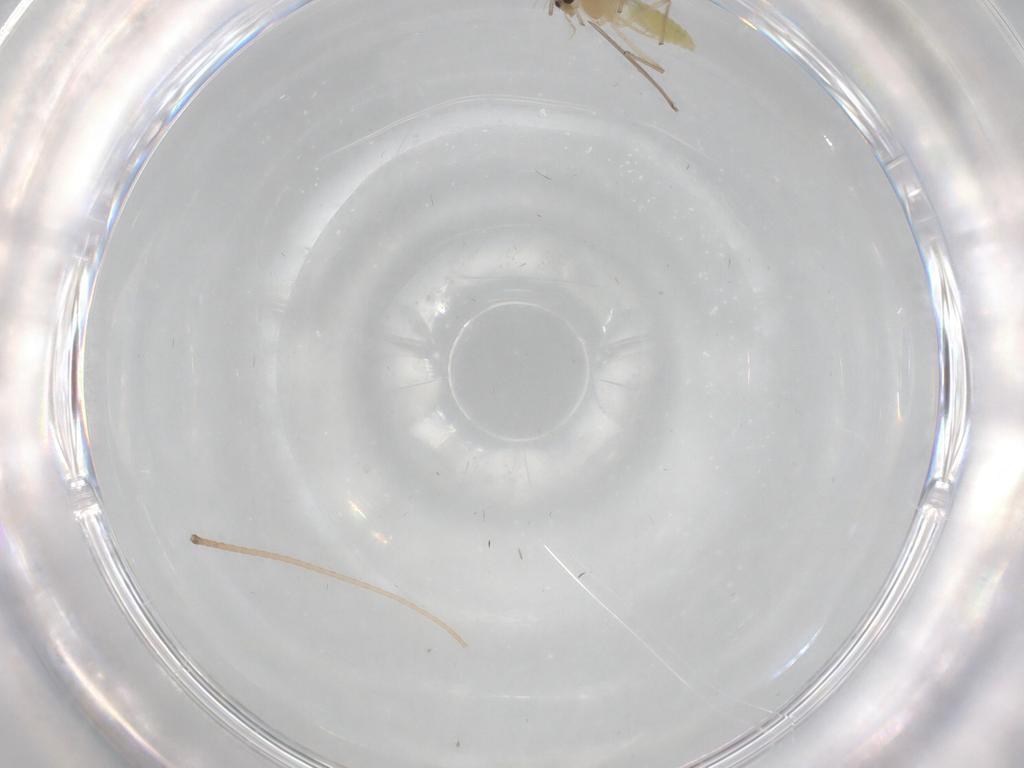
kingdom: Animalia
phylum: Arthropoda
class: Insecta
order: Diptera
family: Chironomidae
